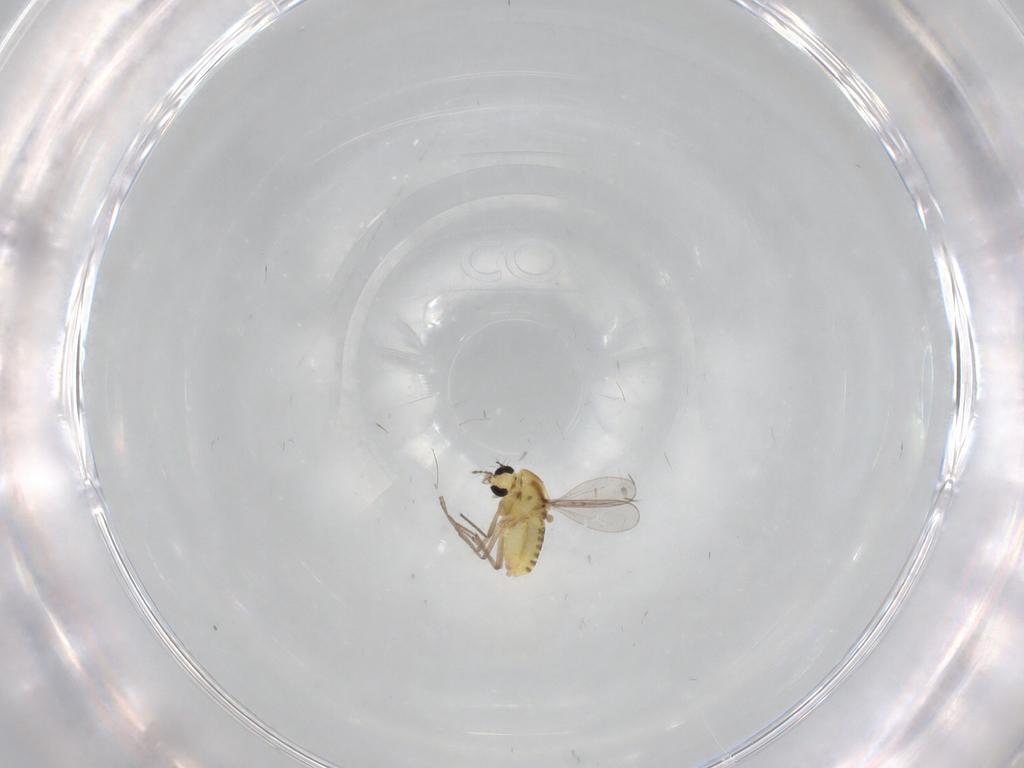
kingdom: Animalia
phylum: Arthropoda
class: Insecta
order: Diptera
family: Chironomidae
